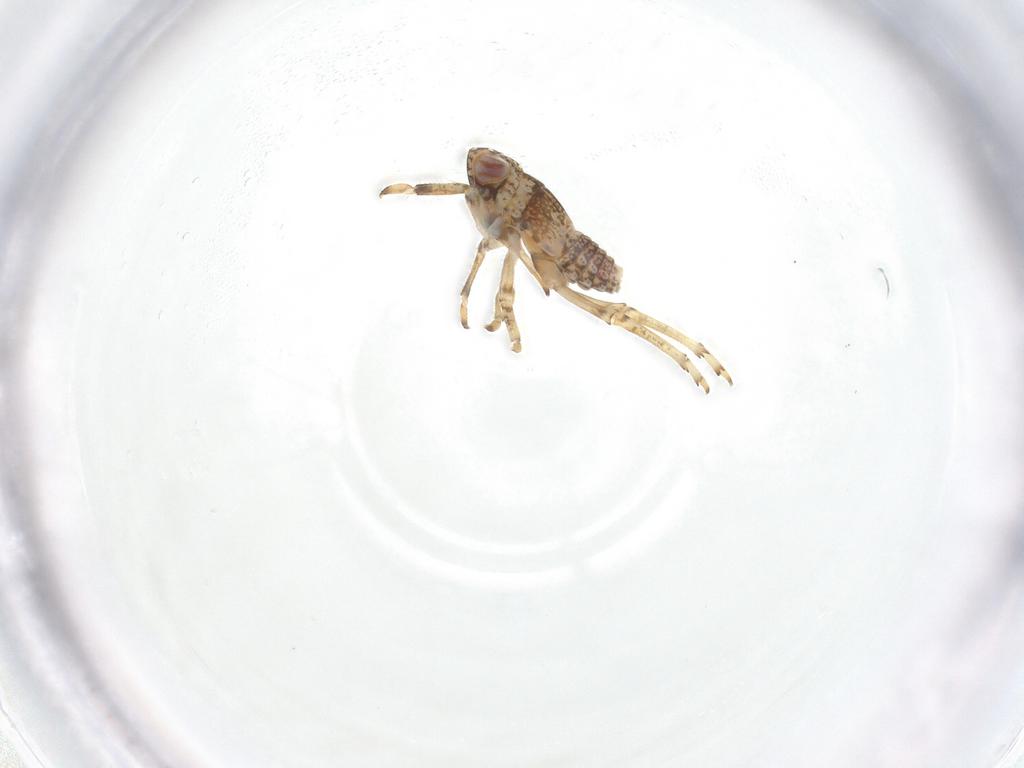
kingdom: Animalia
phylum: Arthropoda
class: Insecta
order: Hemiptera
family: Issidae
